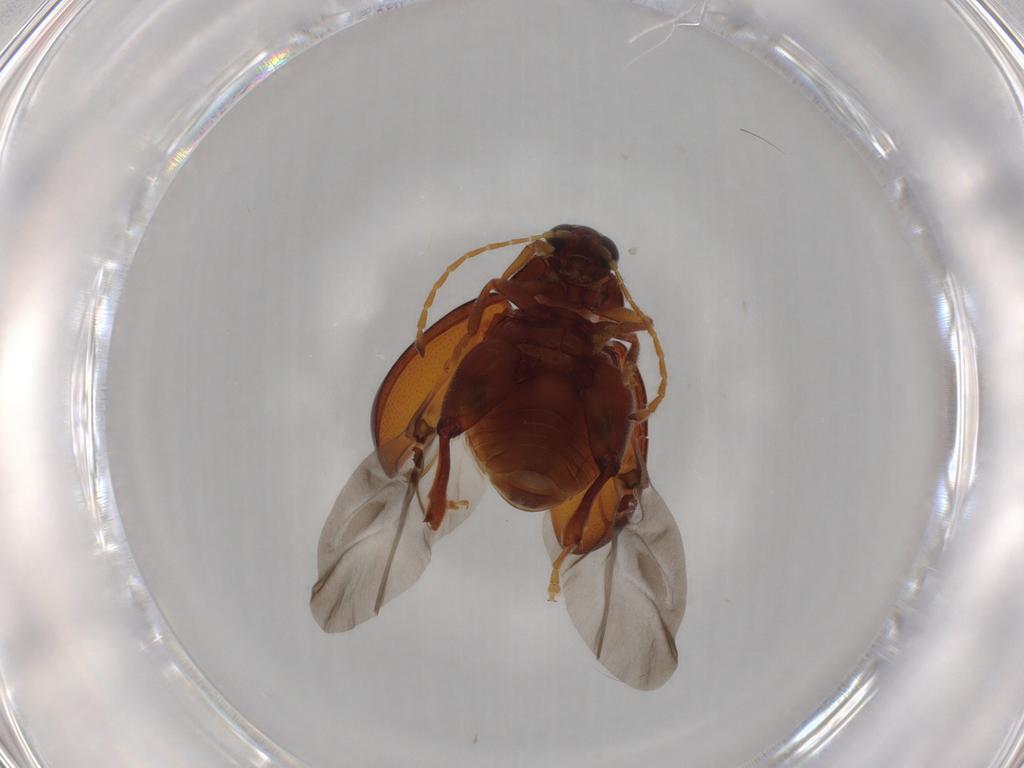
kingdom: Animalia
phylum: Arthropoda
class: Insecta
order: Coleoptera
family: Chrysomelidae
